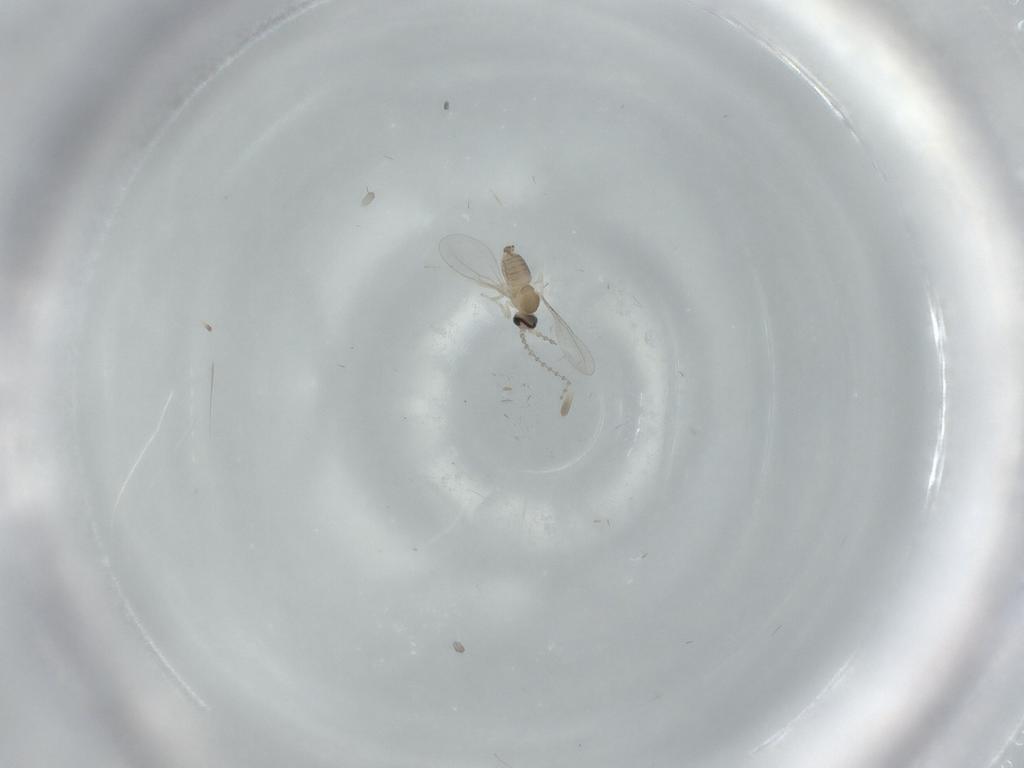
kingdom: Animalia
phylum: Arthropoda
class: Insecta
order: Diptera
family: Cecidomyiidae
